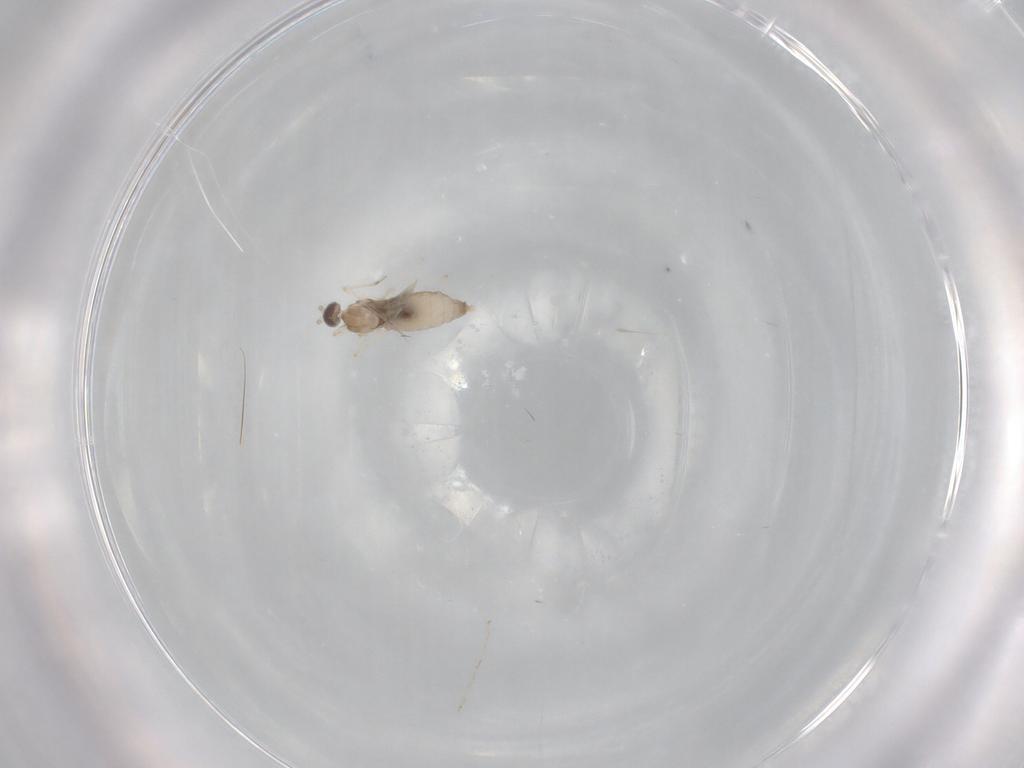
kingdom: Animalia
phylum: Arthropoda
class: Insecta
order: Diptera
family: Cecidomyiidae
